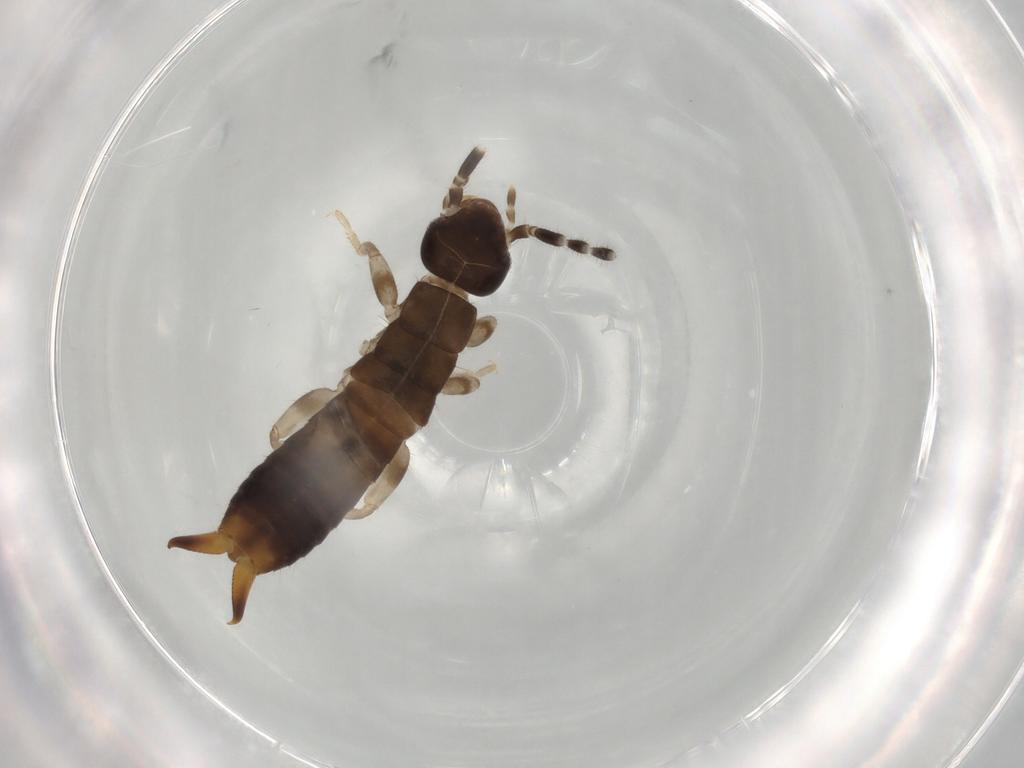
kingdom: Animalia
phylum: Arthropoda
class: Insecta
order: Dermaptera
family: Anisolabididae
